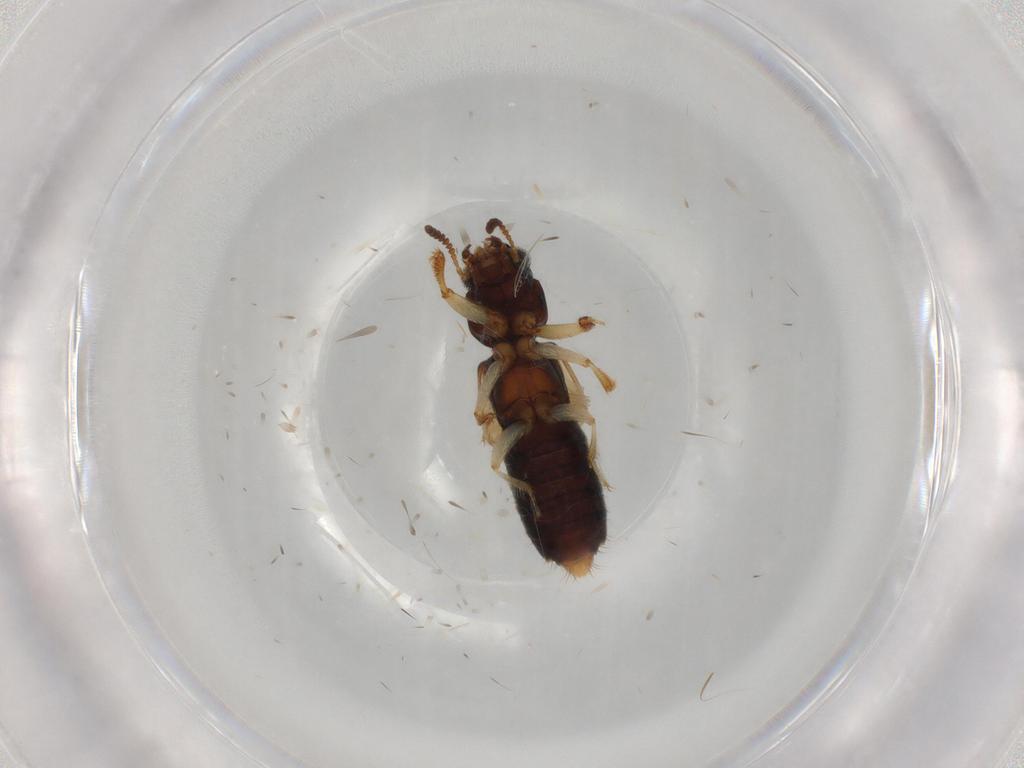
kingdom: Animalia
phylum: Arthropoda
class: Insecta
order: Coleoptera
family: Staphylinidae
